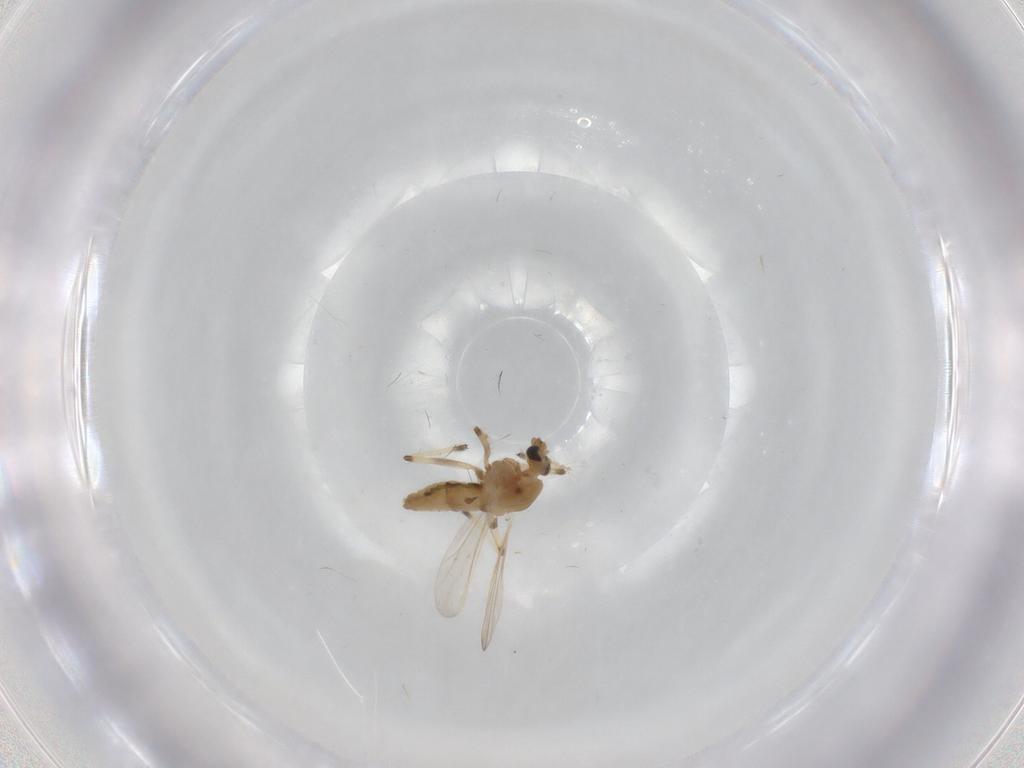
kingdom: Animalia
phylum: Arthropoda
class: Insecta
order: Diptera
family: Chironomidae
